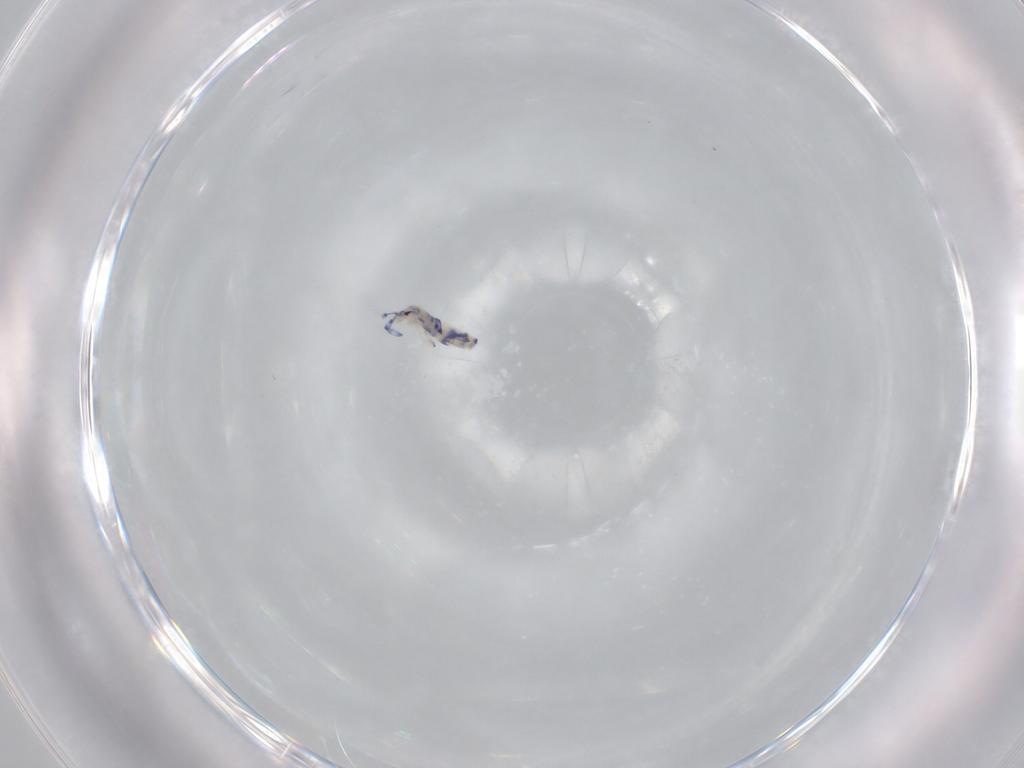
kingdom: Animalia
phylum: Arthropoda
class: Collembola
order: Entomobryomorpha
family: Entomobryidae
